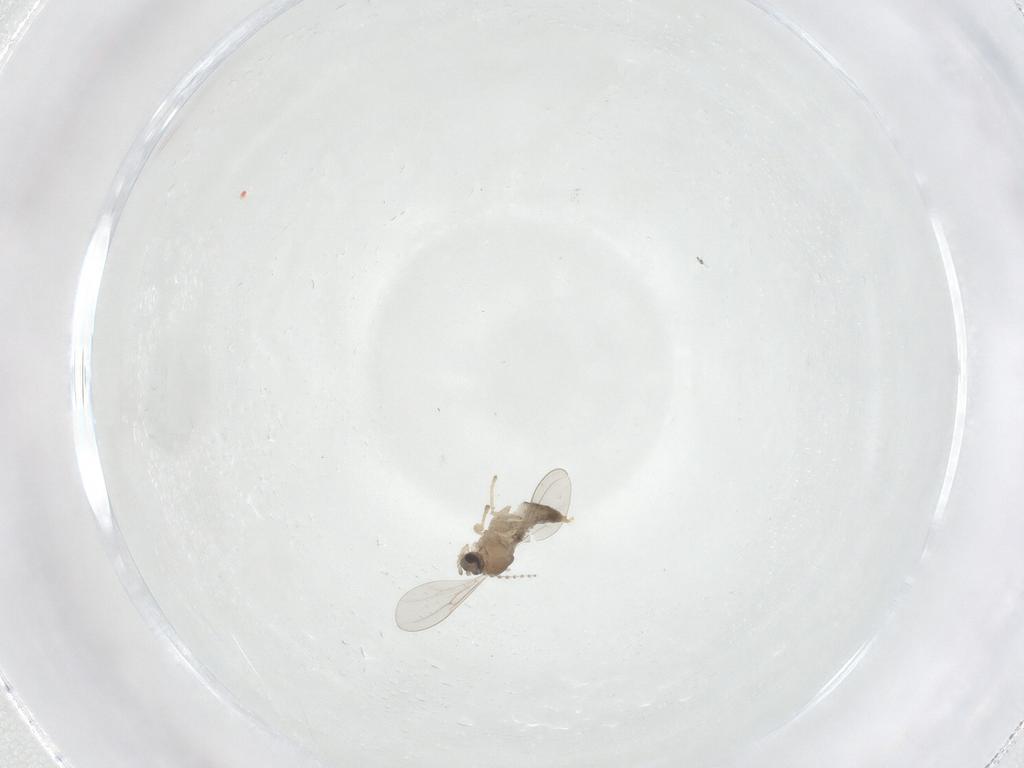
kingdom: Animalia
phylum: Arthropoda
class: Insecta
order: Diptera
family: Cecidomyiidae
